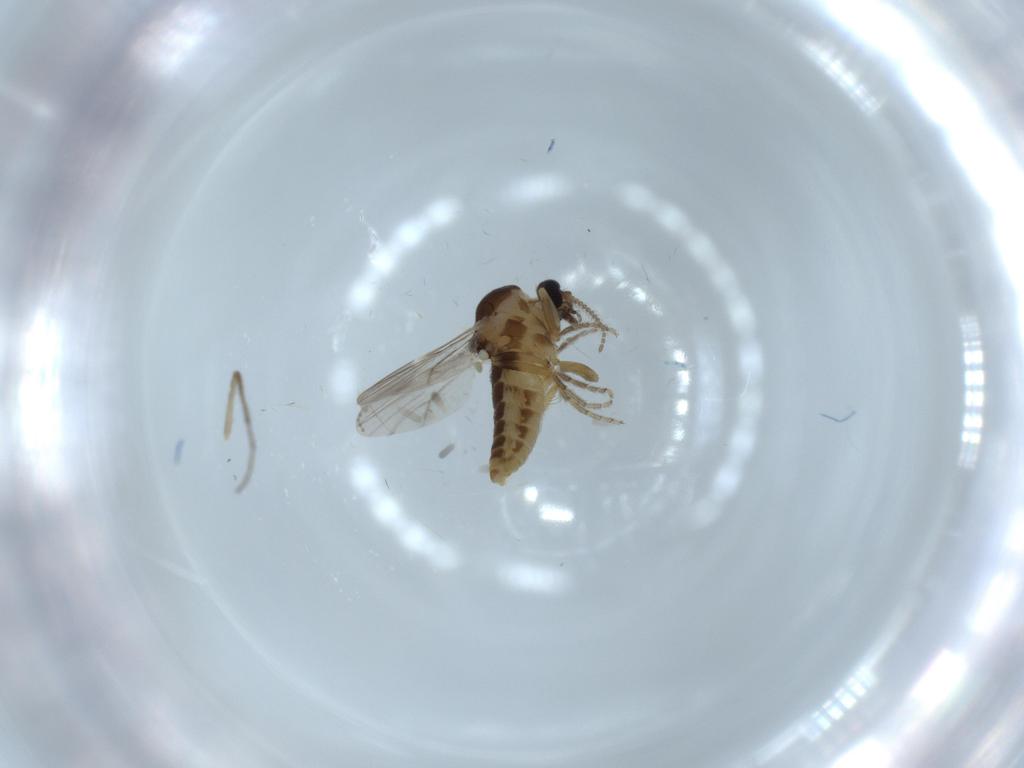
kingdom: Animalia
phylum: Arthropoda
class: Insecta
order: Diptera
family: Ceratopogonidae
